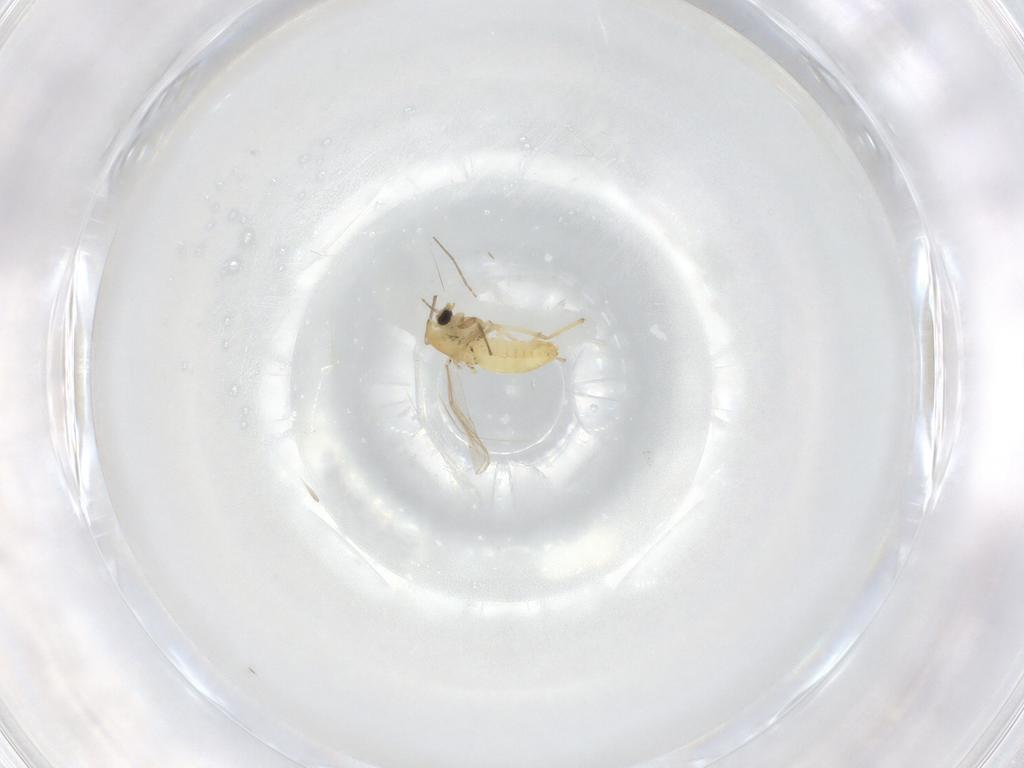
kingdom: Animalia
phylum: Arthropoda
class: Insecta
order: Diptera
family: Chironomidae
